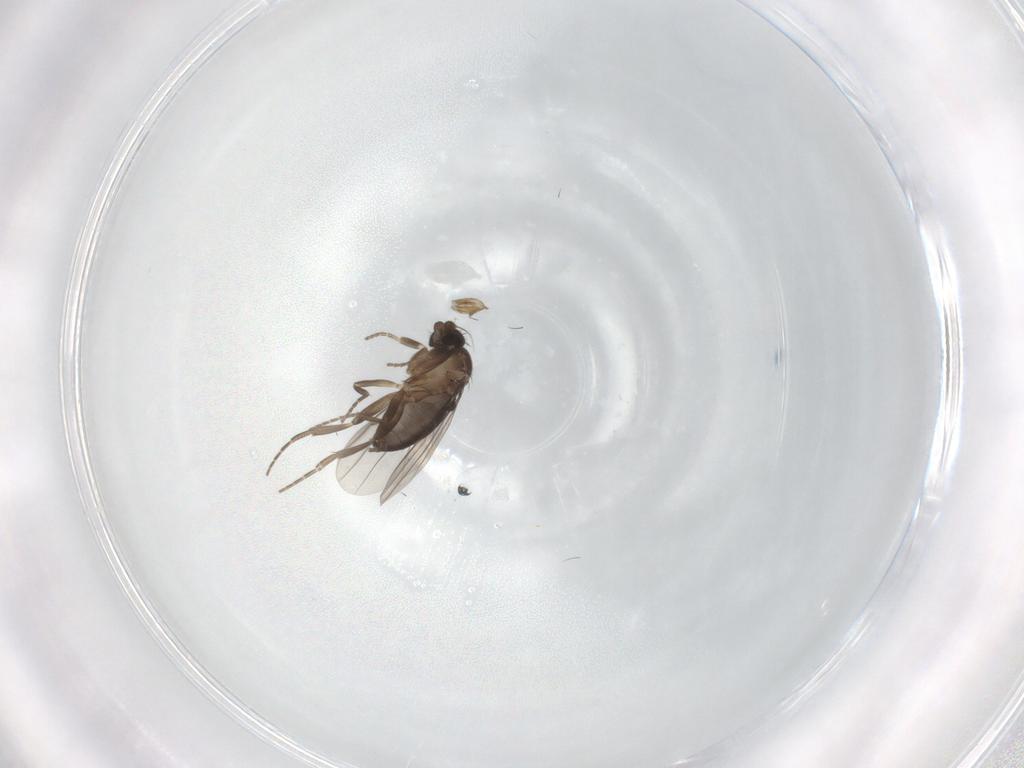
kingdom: Animalia
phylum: Arthropoda
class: Insecta
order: Diptera
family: Phoridae
